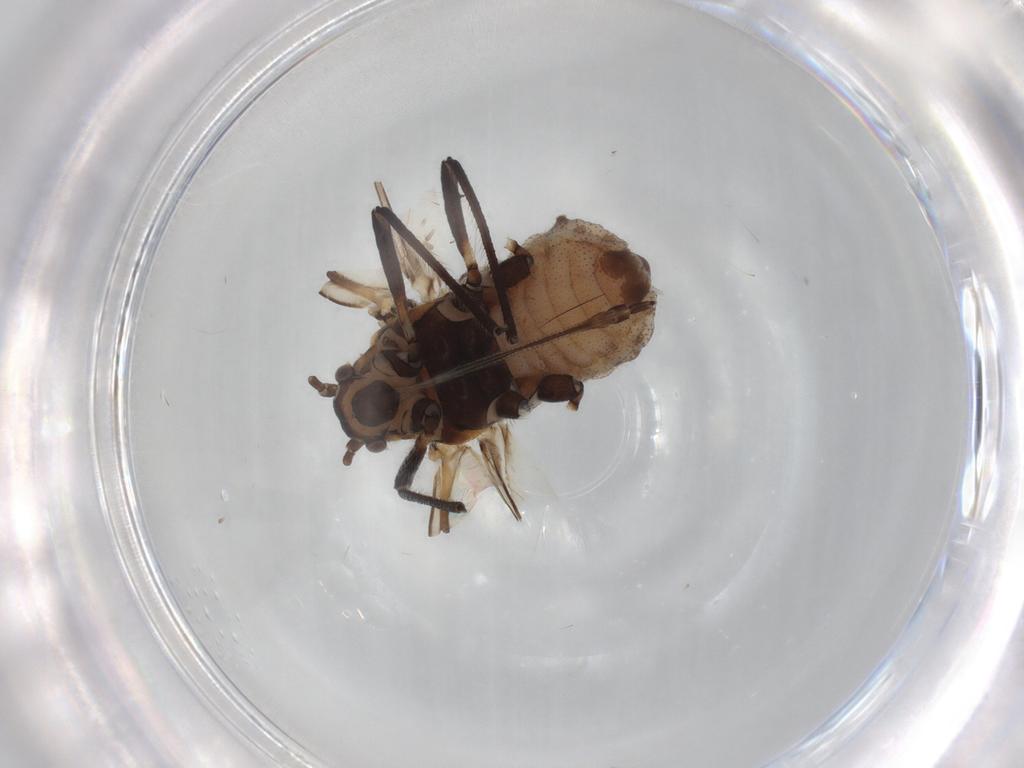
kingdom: Animalia
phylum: Arthropoda
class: Insecta
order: Hemiptera
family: Aphididae
